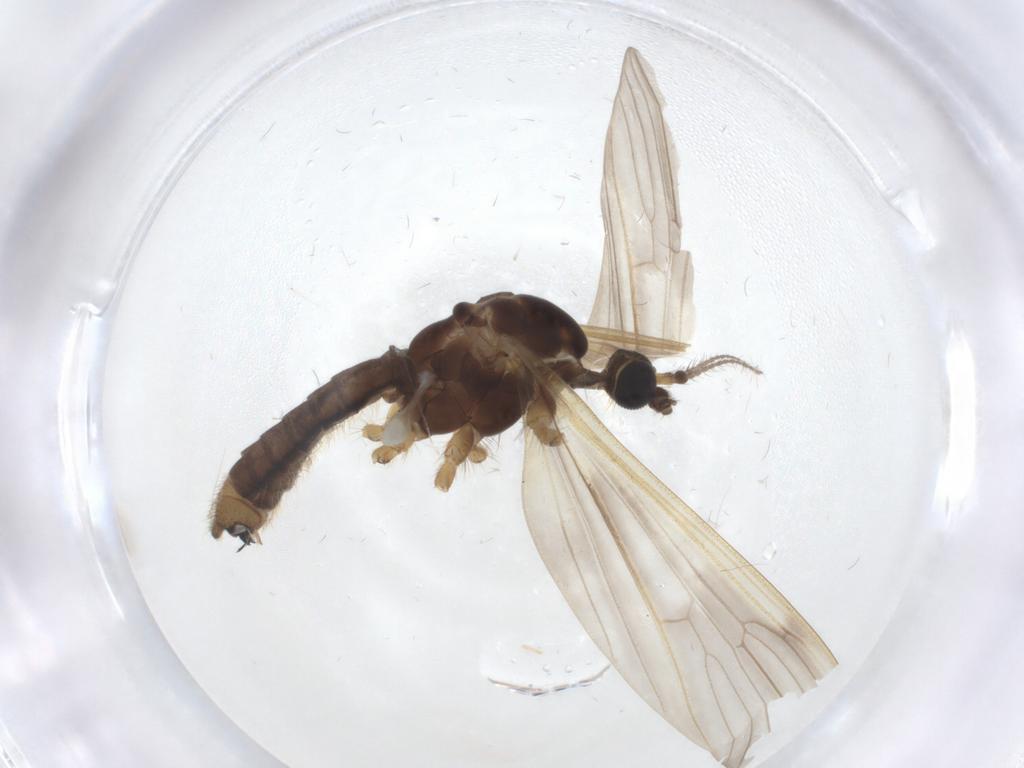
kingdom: Animalia
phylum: Arthropoda
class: Insecta
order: Diptera
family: Chironomidae
